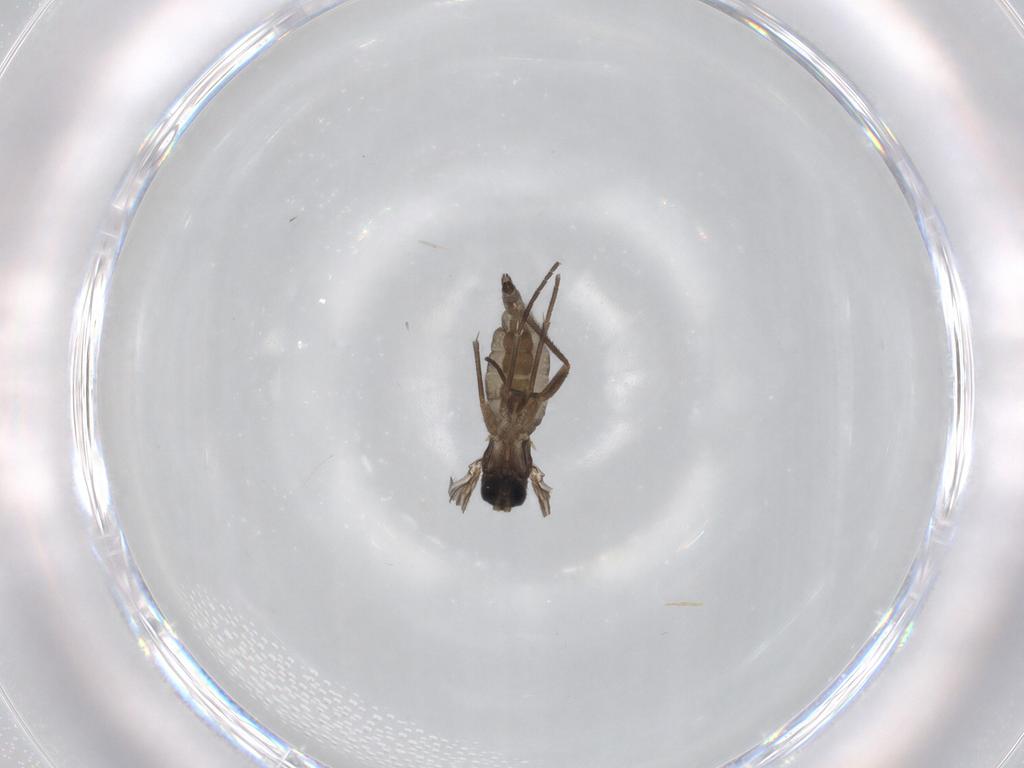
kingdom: Animalia
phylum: Arthropoda
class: Insecta
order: Diptera
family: Sciaridae
